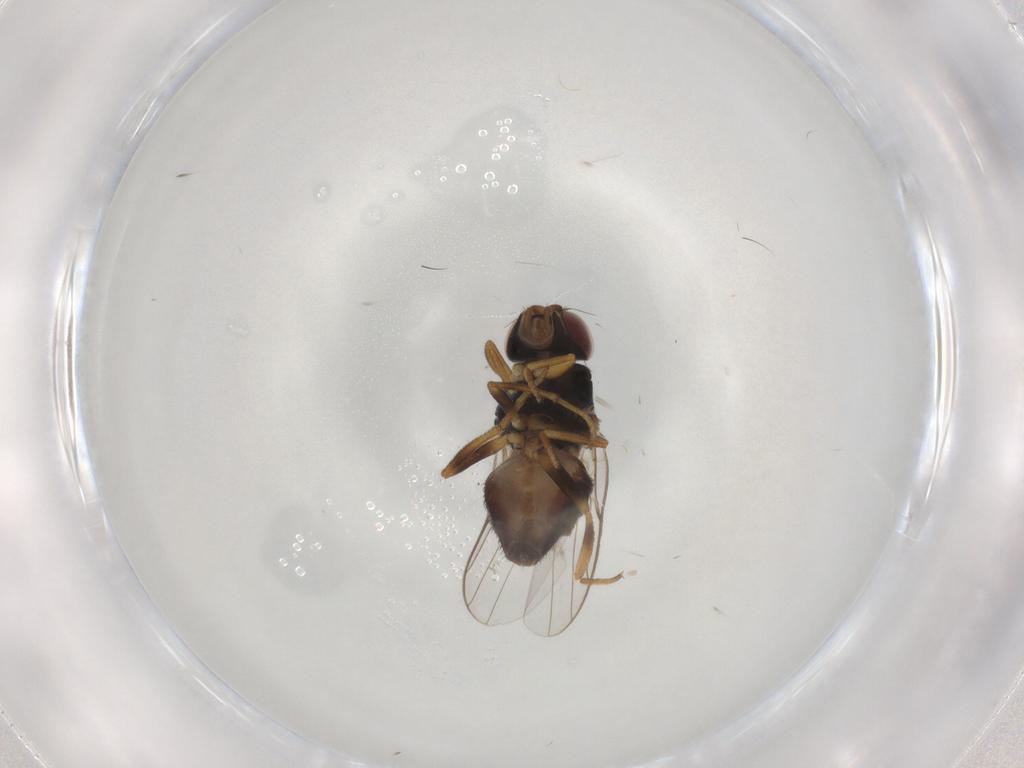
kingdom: Animalia
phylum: Arthropoda
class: Insecta
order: Diptera
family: Chloropidae
